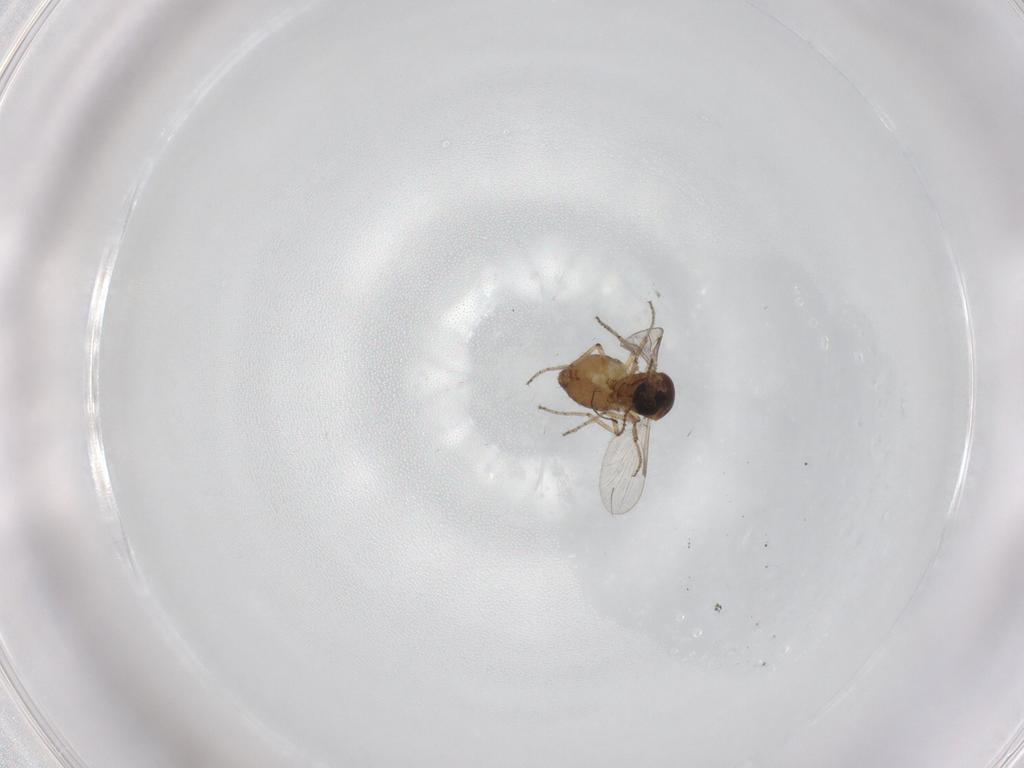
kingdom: Animalia
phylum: Arthropoda
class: Insecta
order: Diptera
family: Ceratopogonidae
